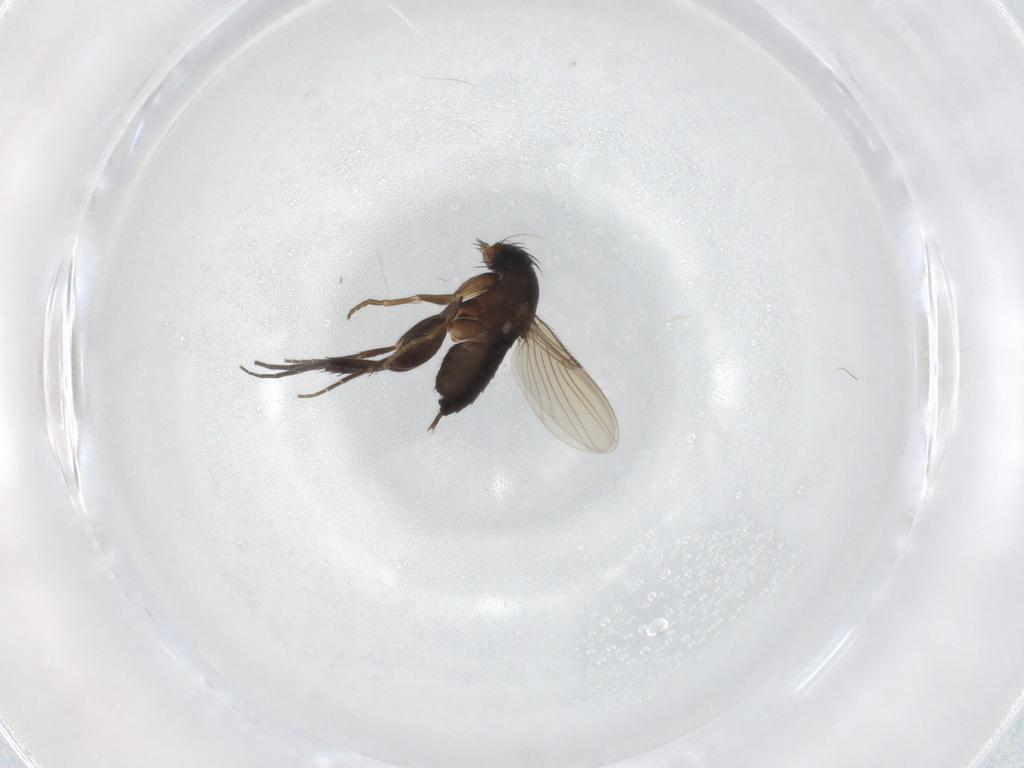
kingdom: Animalia
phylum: Arthropoda
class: Insecta
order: Diptera
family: Phoridae
